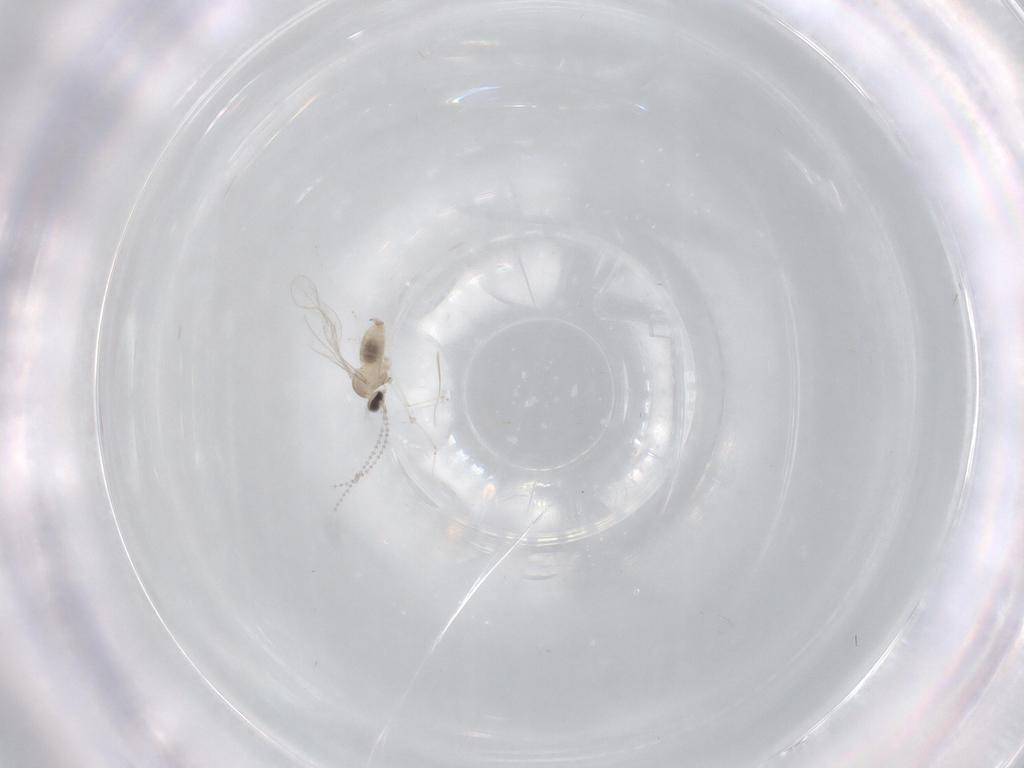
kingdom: Animalia
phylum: Arthropoda
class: Insecta
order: Diptera
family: Cecidomyiidae
